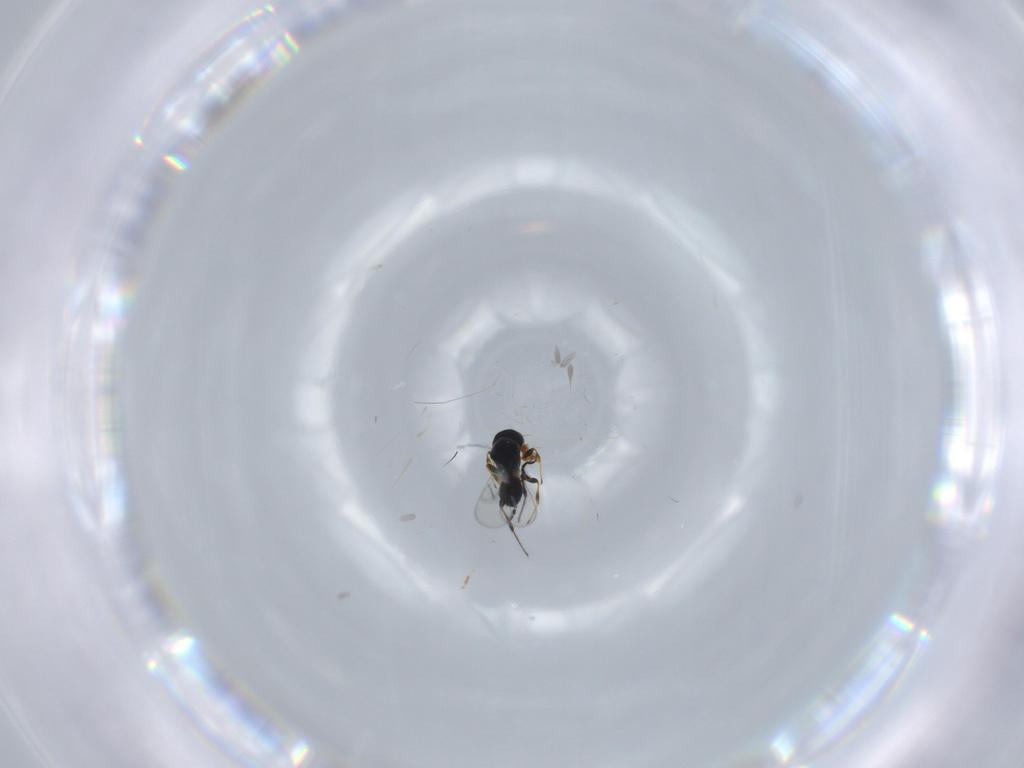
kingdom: Animalia
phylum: Arthropoda
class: Insecta
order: Hymenoptera
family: Platygastridae
